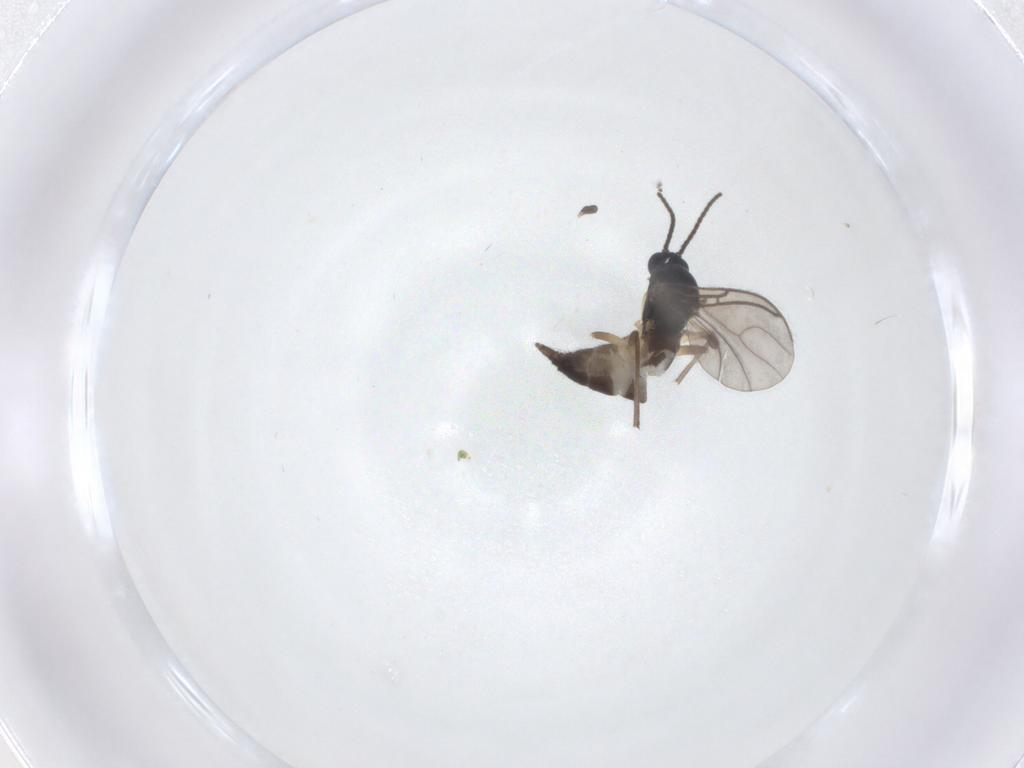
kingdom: Animalia
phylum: Arthropoda
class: Insecta
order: Diptera
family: Sciaridae
